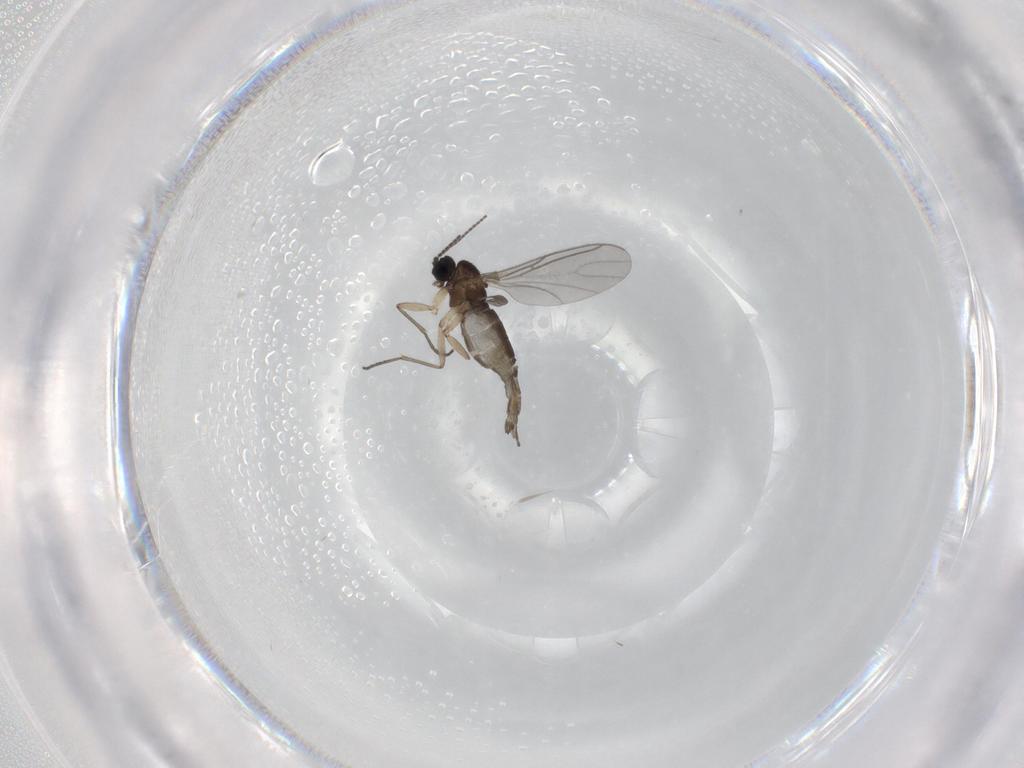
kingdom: Animalia
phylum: Arthropoda
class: Insecta
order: Diptera
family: Sciaridae
